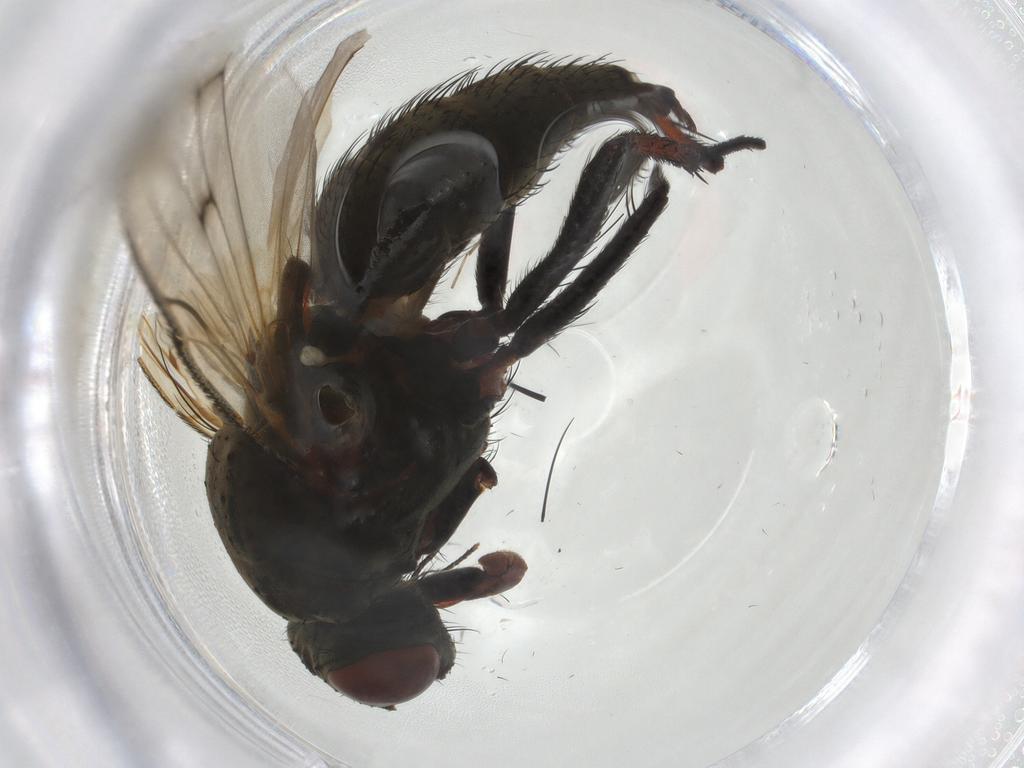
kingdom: Animalia
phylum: Arthropoda
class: Insecta
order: Diptera
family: Anthomyiidae
